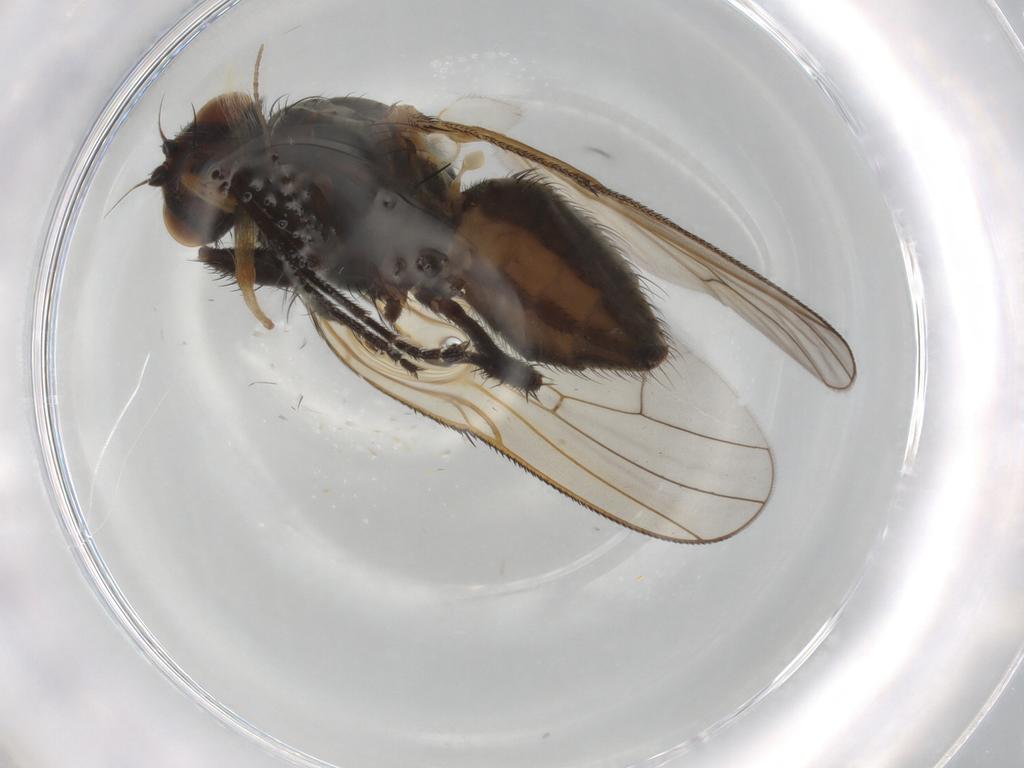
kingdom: Animalia
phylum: Arthropoda
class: Insecta
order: Diptera
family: Anthomyiidae
